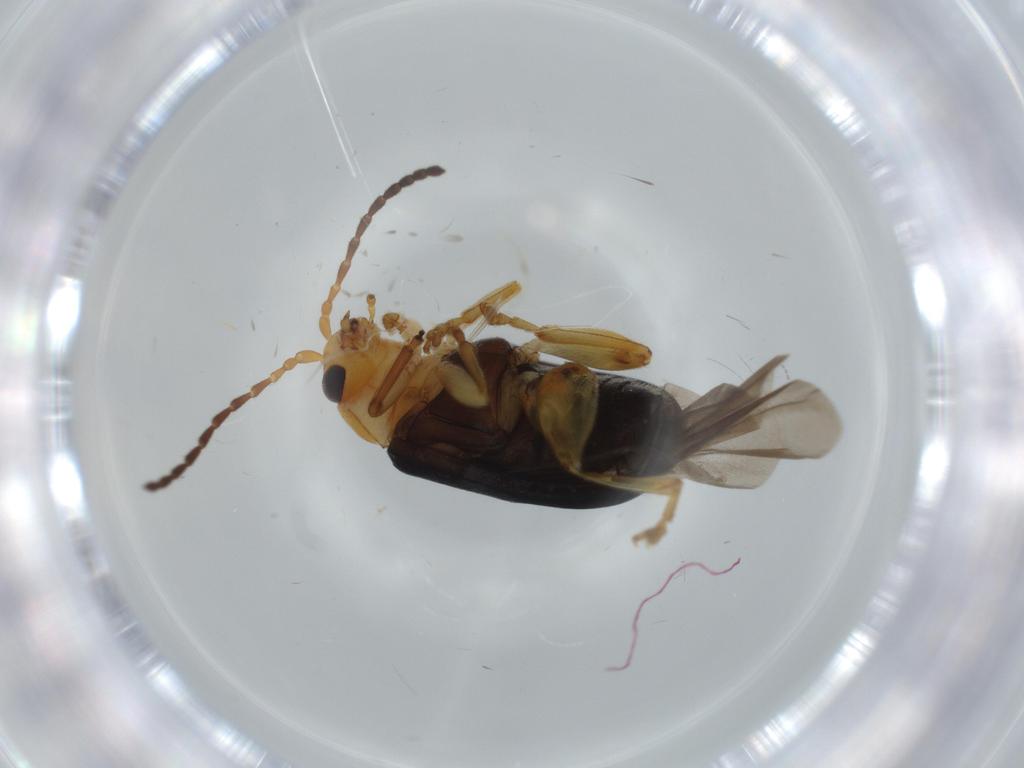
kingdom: Animalia
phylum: Arthropoda
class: Insecta
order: Coleoptera
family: Chrysomelidae
